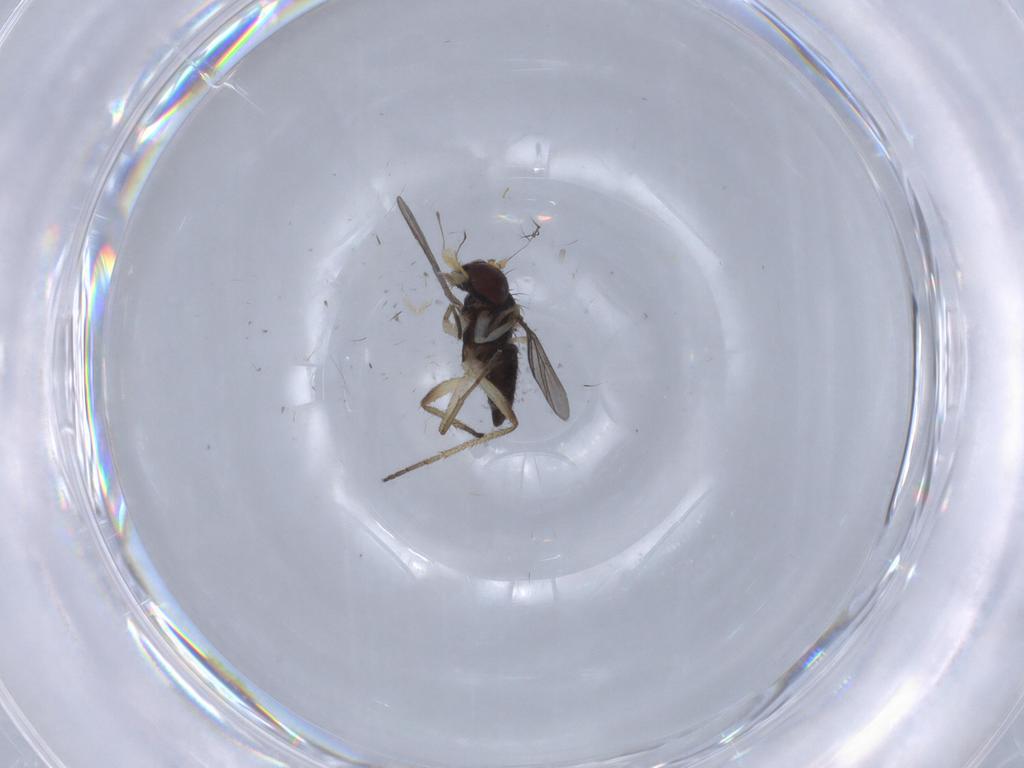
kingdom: Animalia
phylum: Arthropoda
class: Insecta
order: Diptera
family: Dolichopodidae
